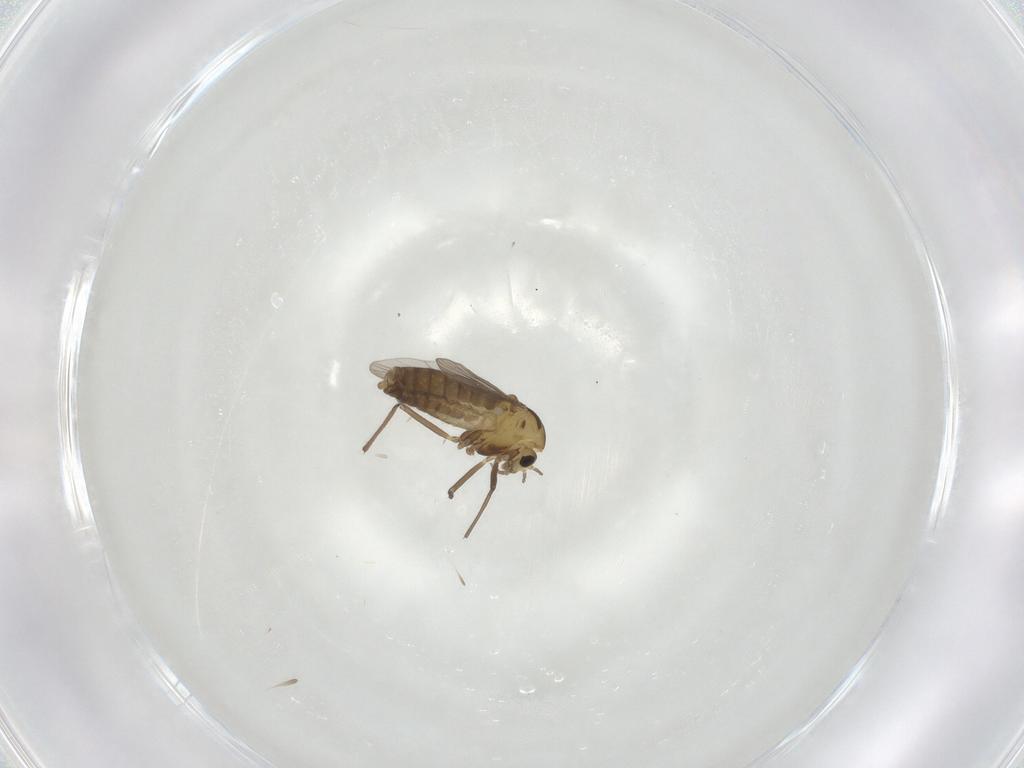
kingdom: Animalia
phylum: Arthropoda
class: Insecta
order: Diptera
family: Chironomidae
